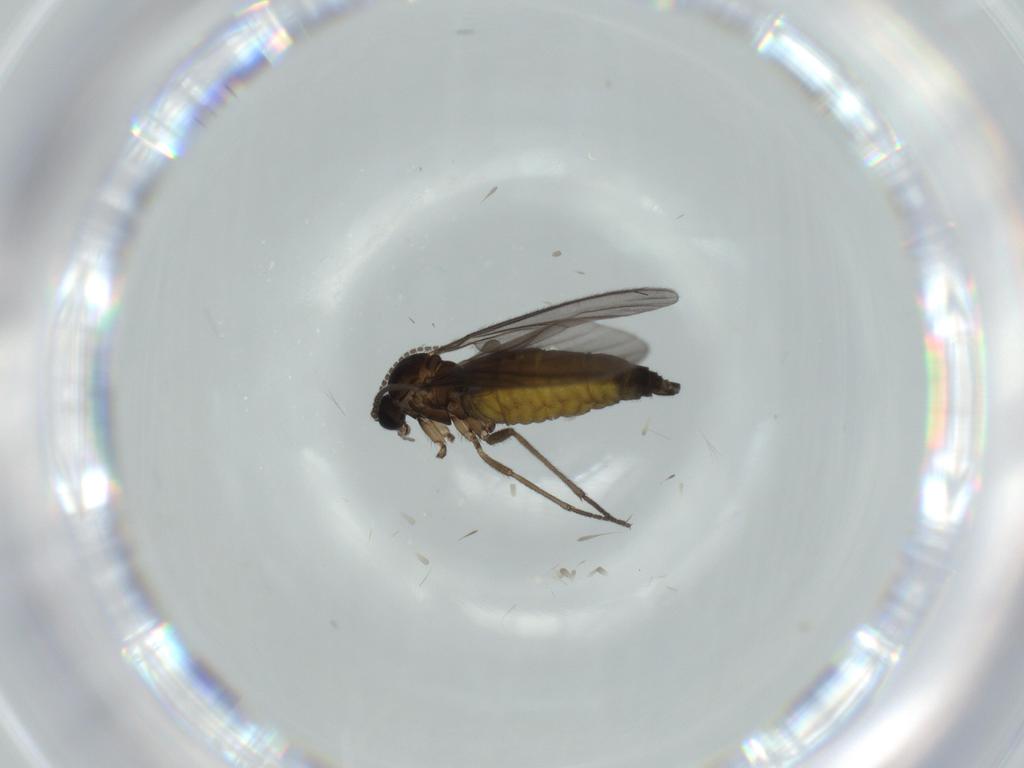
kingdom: Animalia
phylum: Arthropoda
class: Insecta
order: Diptera
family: Sciaridae
